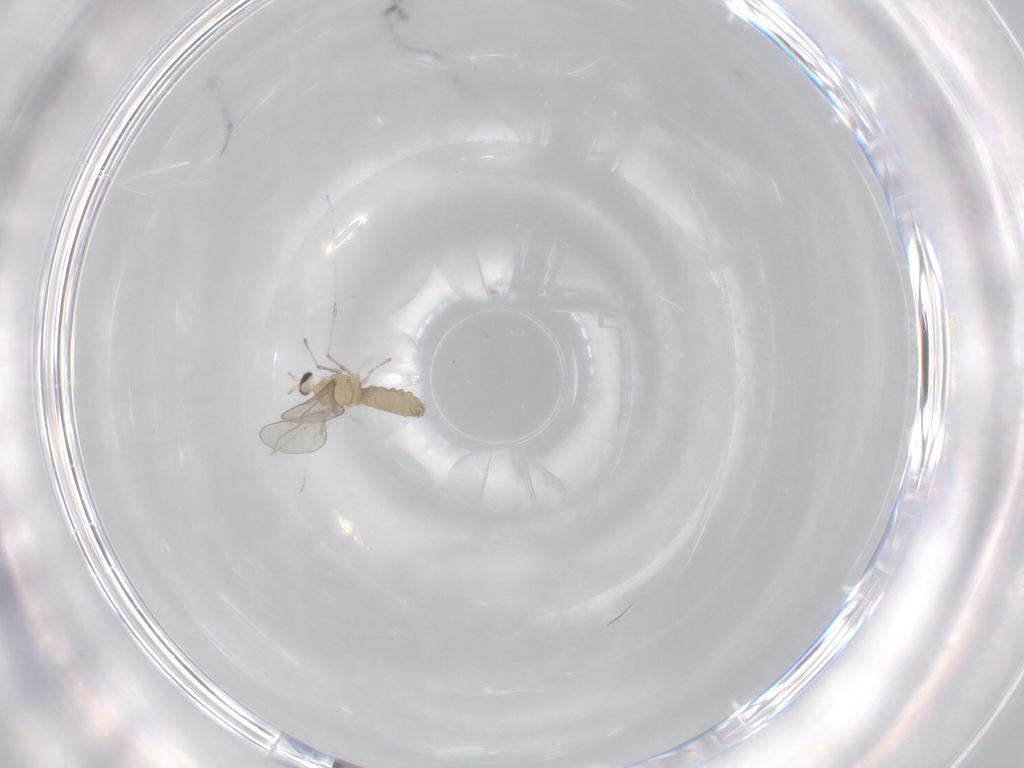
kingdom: Animalia
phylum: Arthropoda
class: Insecta
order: Diptera
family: Cecidomyiidae
